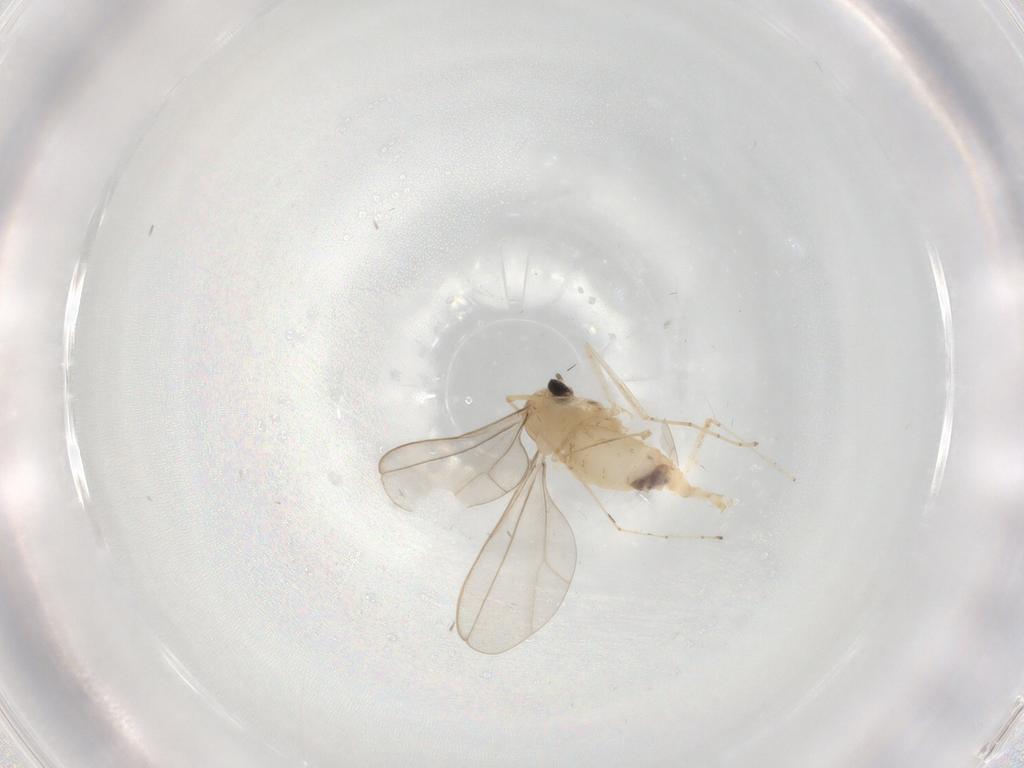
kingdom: Animalia
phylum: Arthropoda
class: Insecta
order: Diptera
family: Cecidomyiidae
